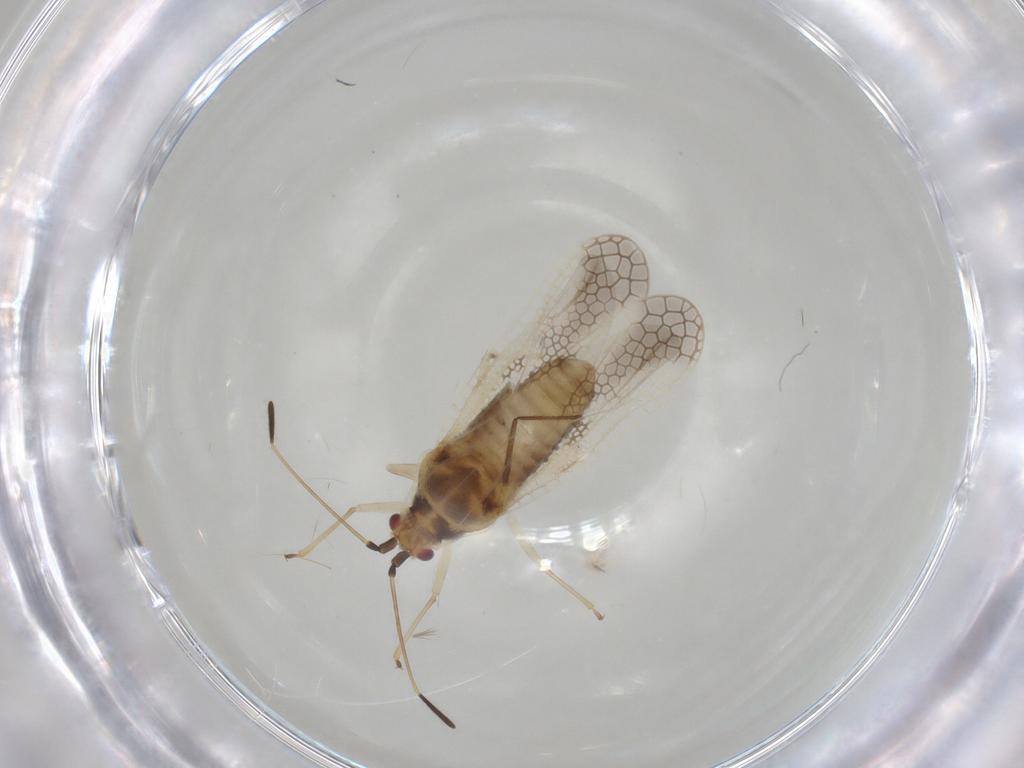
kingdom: Animalia
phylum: Arthropoda
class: Insecta
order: Hemiptera
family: Tingidae
